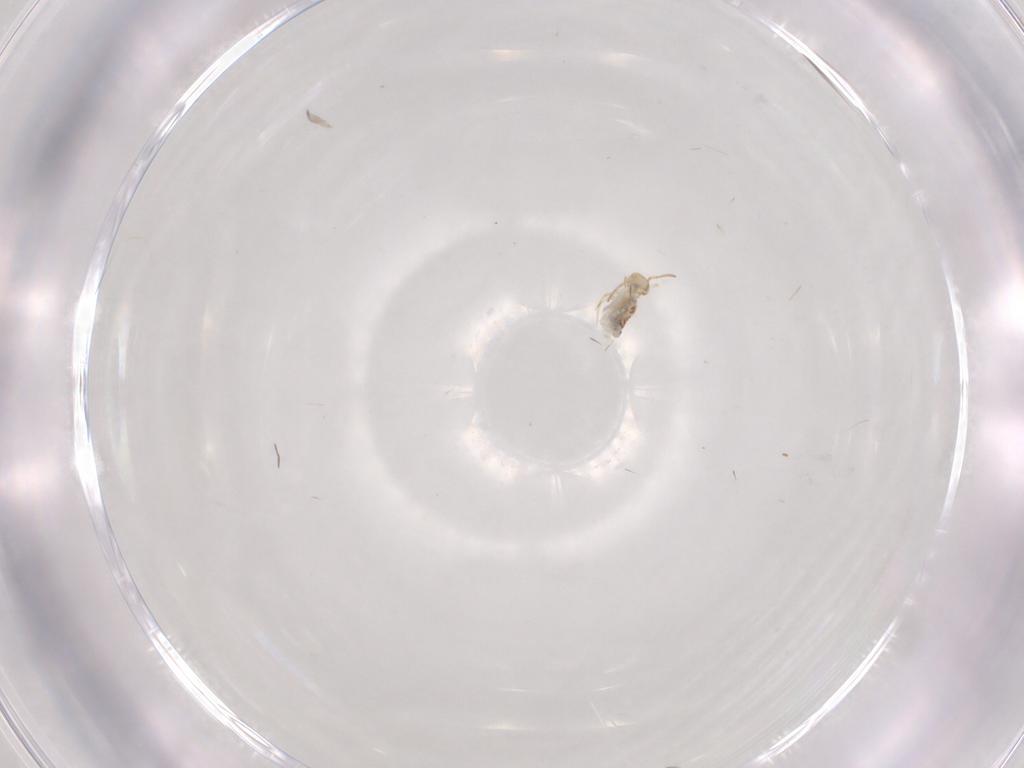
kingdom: Animalia
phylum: Arthropoda
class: Collembola
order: Symphypleona
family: Bourletiellidae
